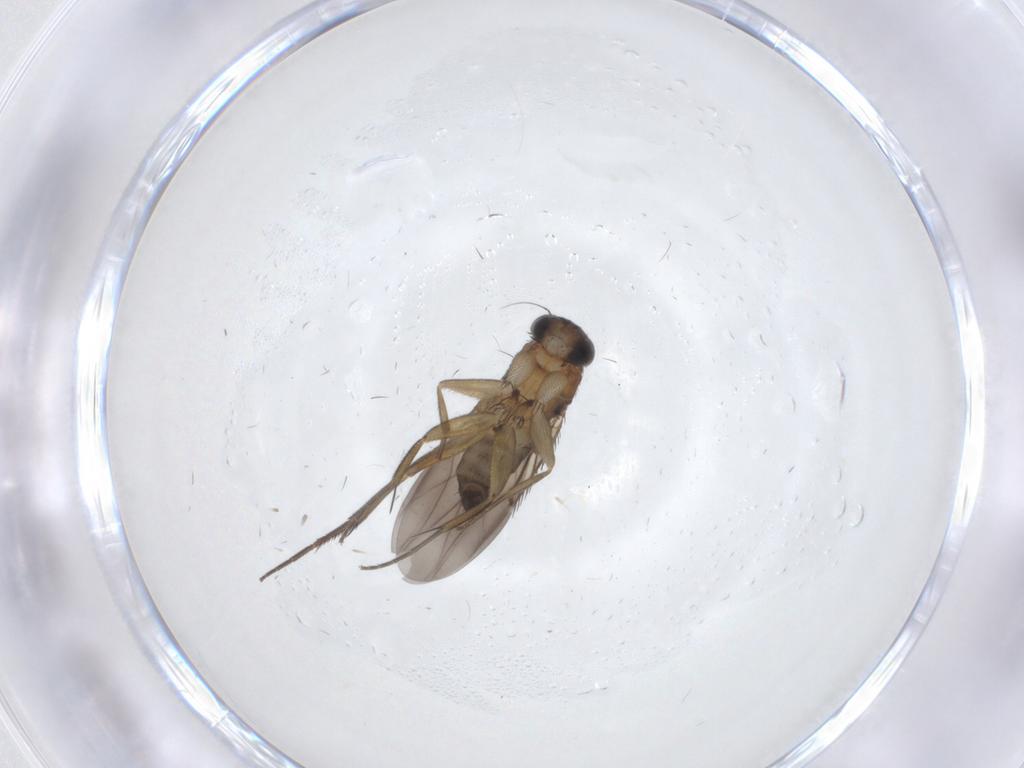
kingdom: Animalia
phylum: Arthropoda
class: Insecta
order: Diptera
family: Phoridae
